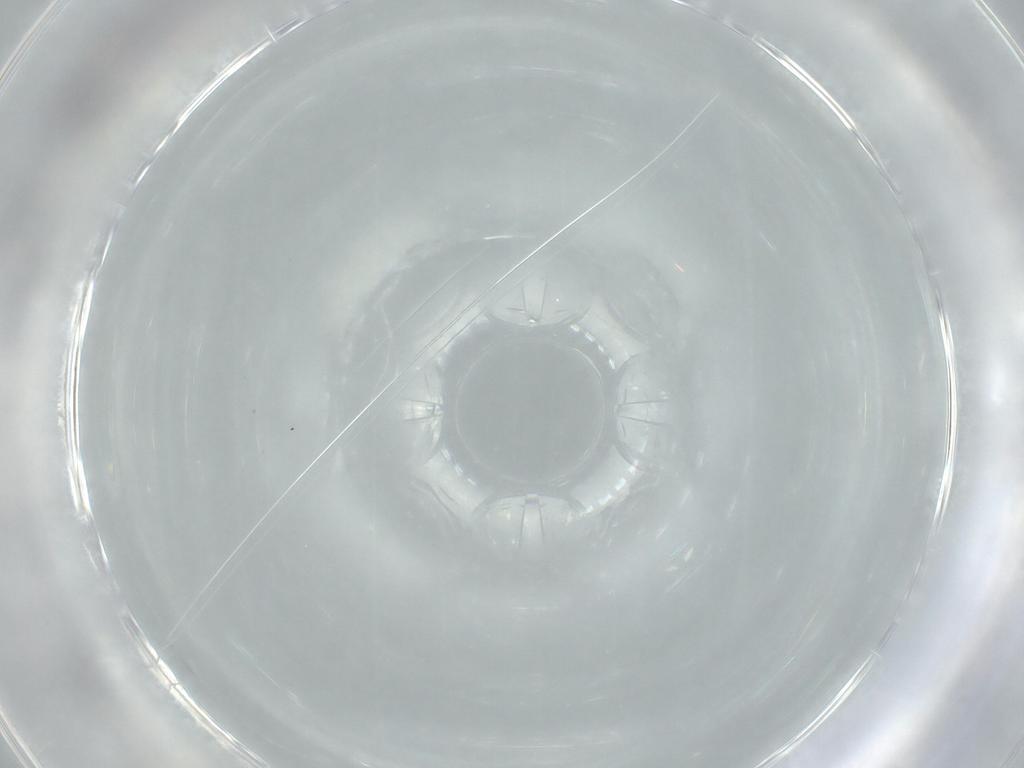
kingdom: Animalia
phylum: Arthropoda
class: Insecta
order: Diptera
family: Phoridae
